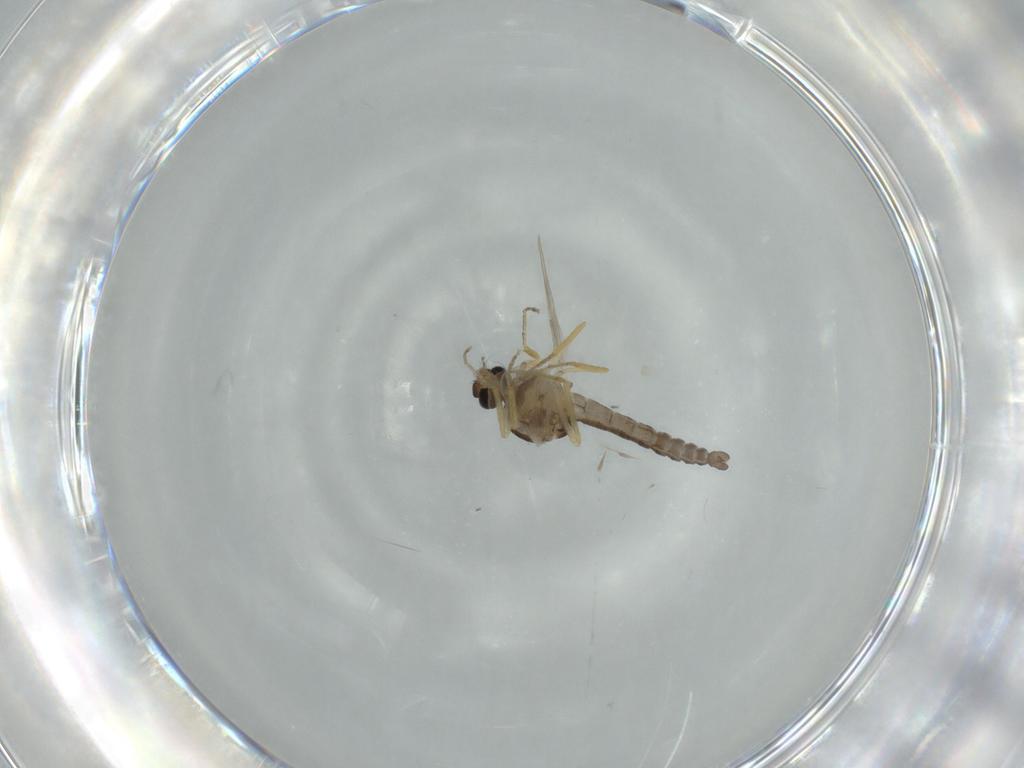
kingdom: Animalia
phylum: Arthropoda
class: Insecta
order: Diptera
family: Ceratopogonidae
